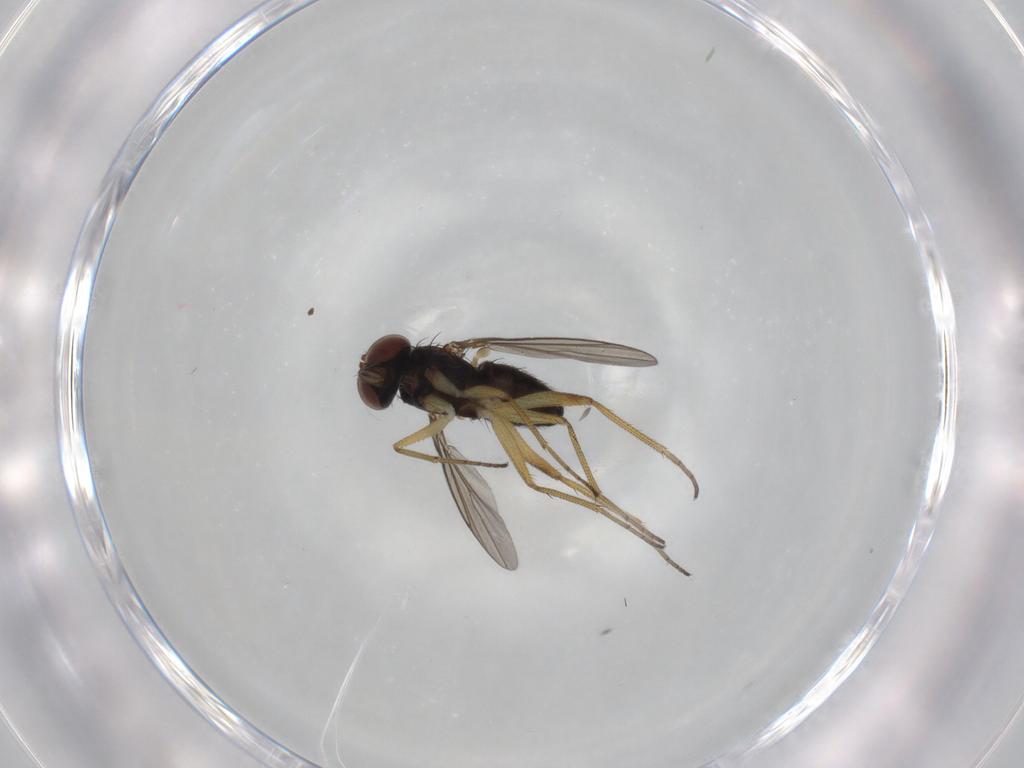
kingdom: Animalia
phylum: Arthropoda
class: Insecta
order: Diptera
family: Dolichopodidae
